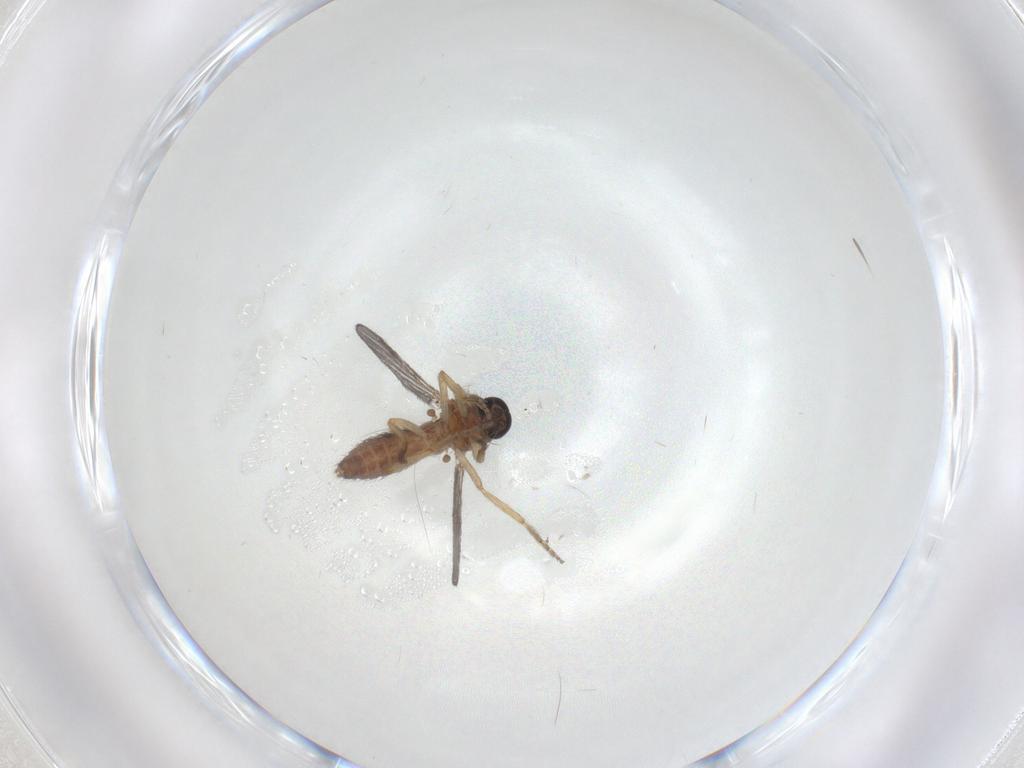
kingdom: Animalia
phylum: Arthropoda
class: Insecta
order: Diptera
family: Ceratopogonidae
